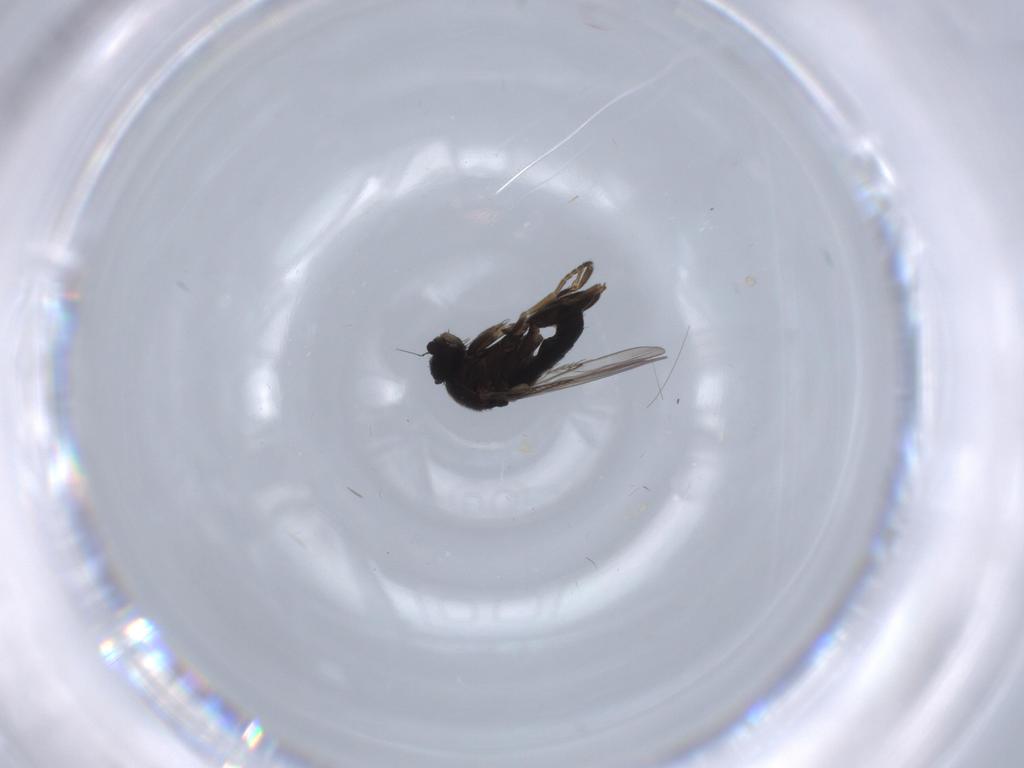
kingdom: Animalia
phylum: Arthropoda
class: Insecta
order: Diptera
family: Phoridae
